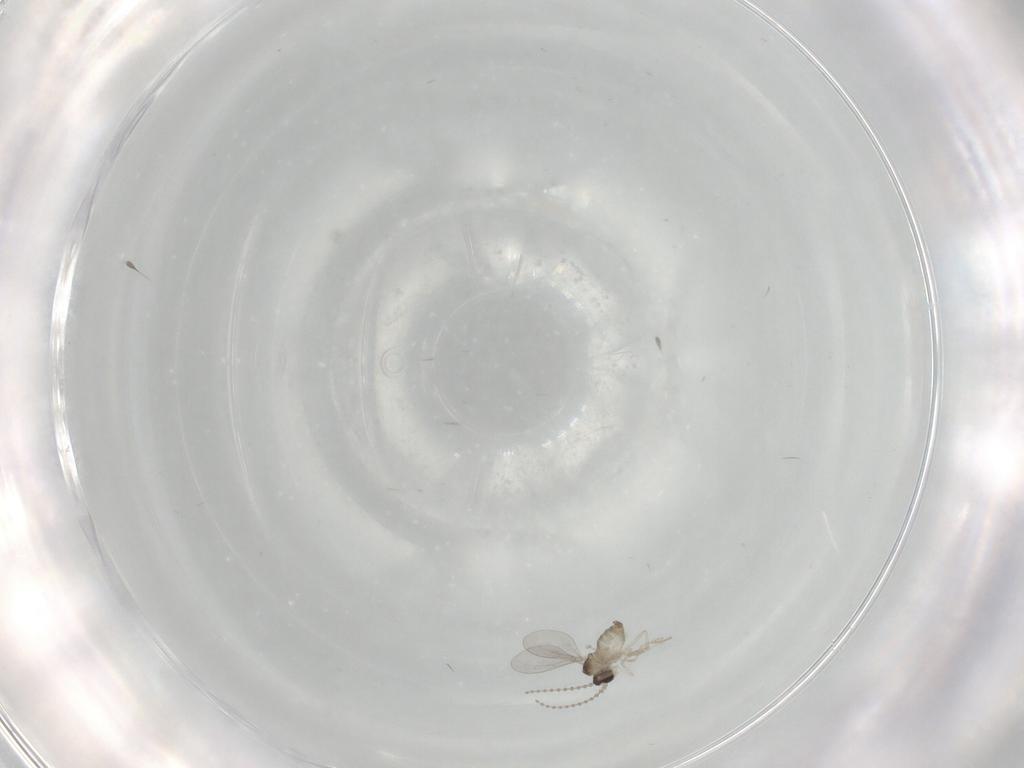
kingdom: Animalia
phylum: Arthropoda
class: Insecta
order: Diptera
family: Cecidomyiidae
